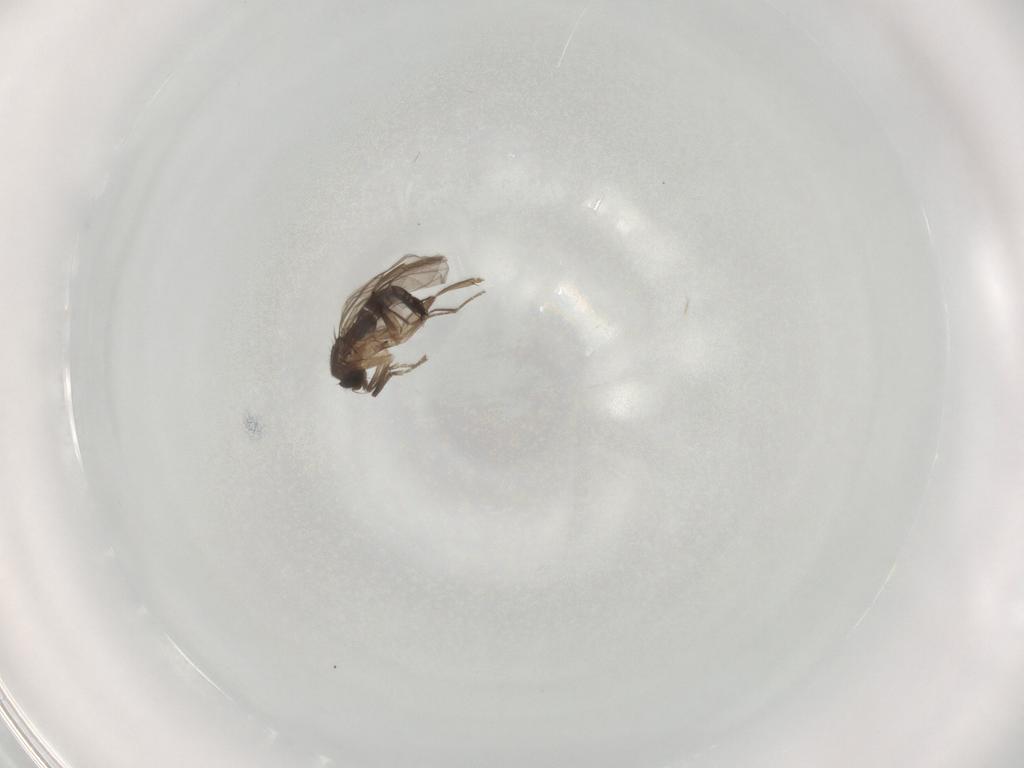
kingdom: Animalia
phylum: Arthropoda
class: Insecta
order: Diptera
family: Phoridae
